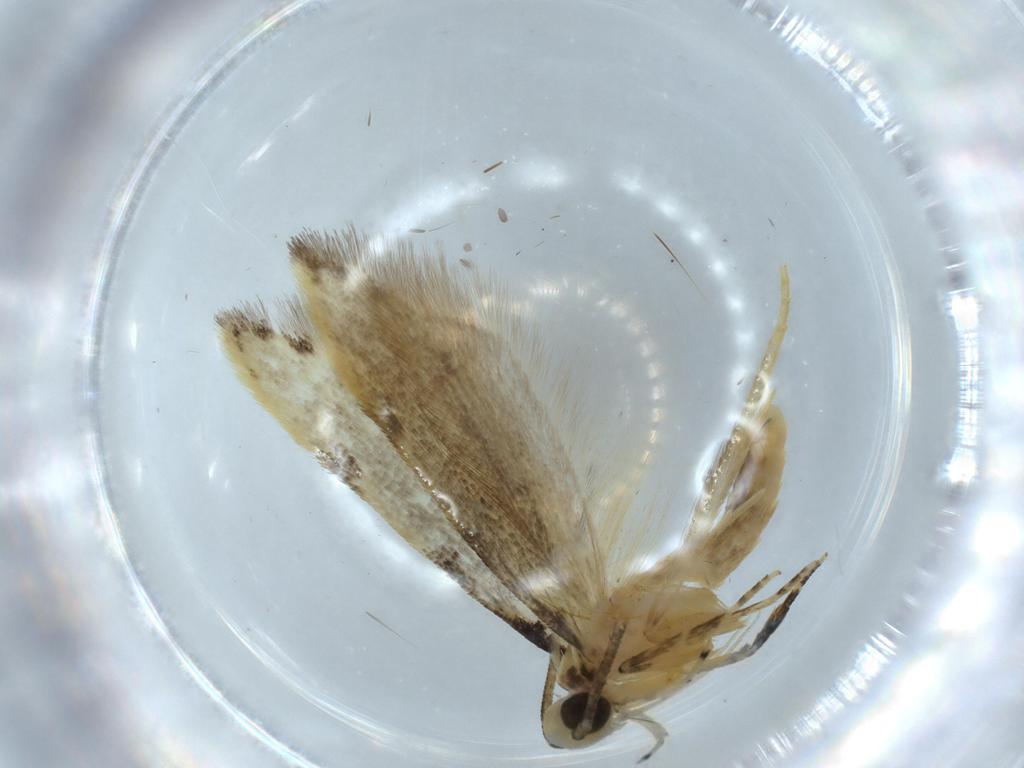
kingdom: Animalia
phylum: Arthropoda
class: Insecta
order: Lepidoptera
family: Autostichidae
